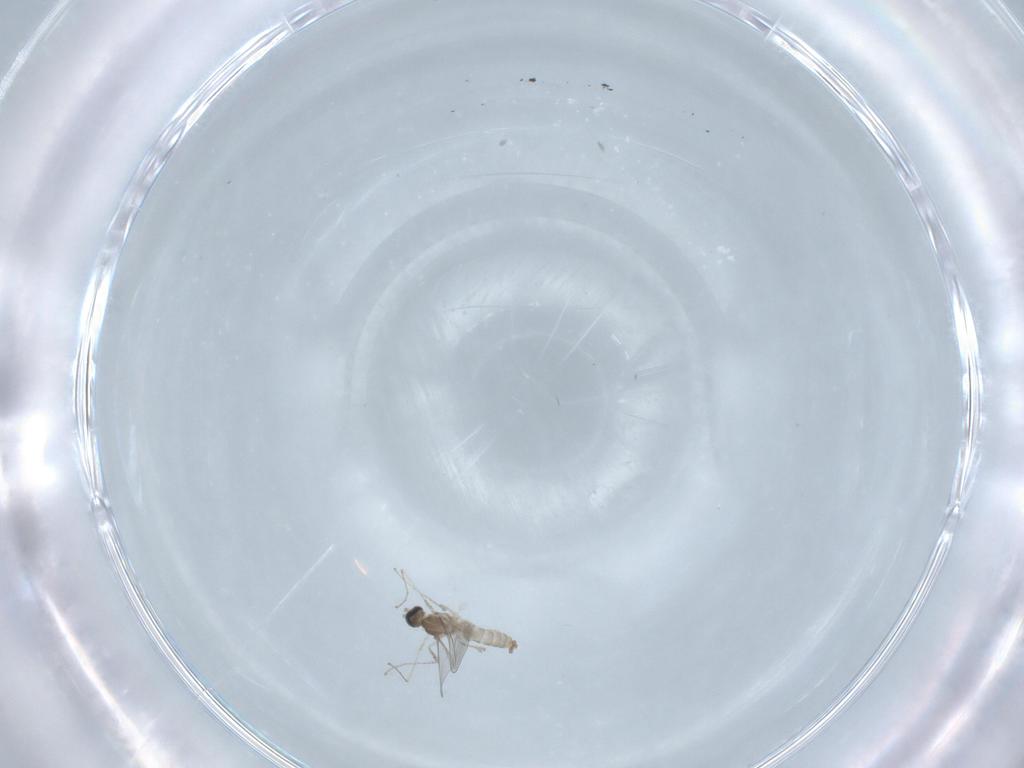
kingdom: Animalia
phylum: Arthropoda
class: Insecta
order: Diptera
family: Cecidomyiidae
